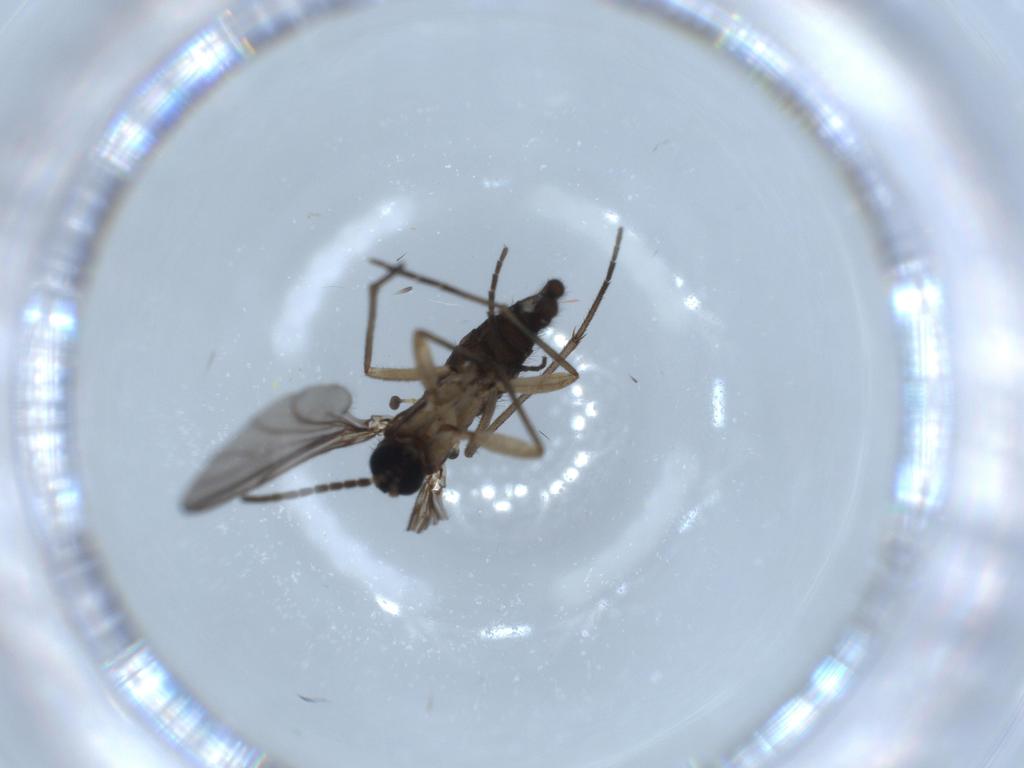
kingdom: Animalia
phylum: Arthropoda
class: Insecta
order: Diptera
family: Sciaridae
